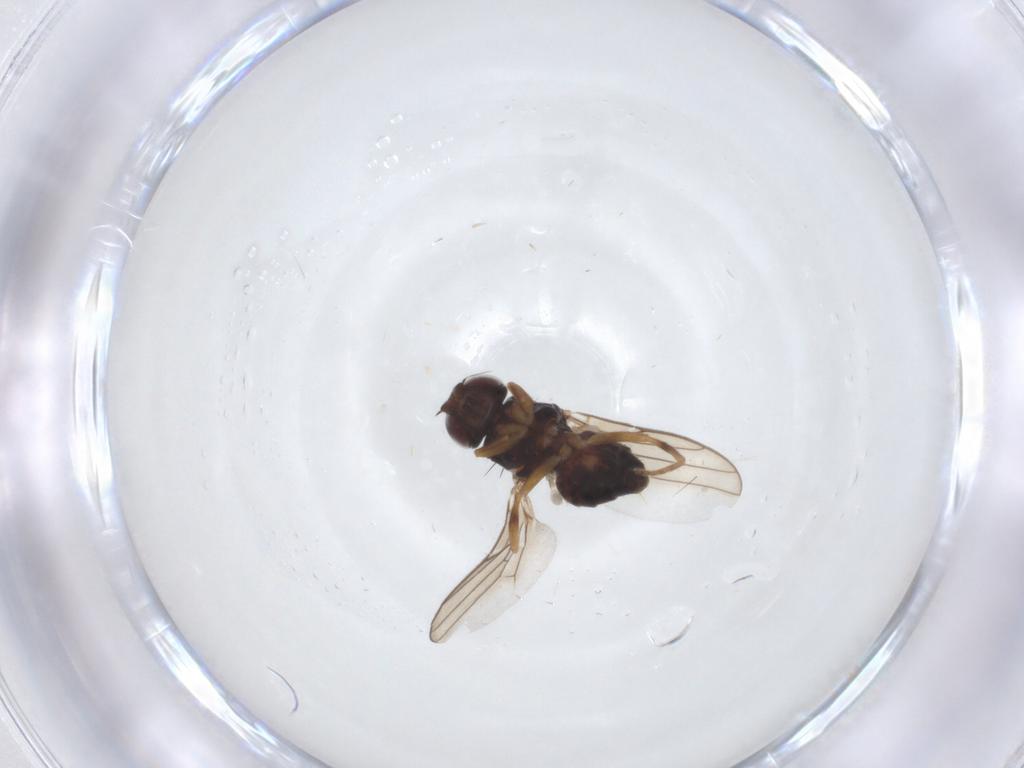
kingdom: Animalia
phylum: Arthropoda
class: Insecta
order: Diptera
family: Chloropidae
